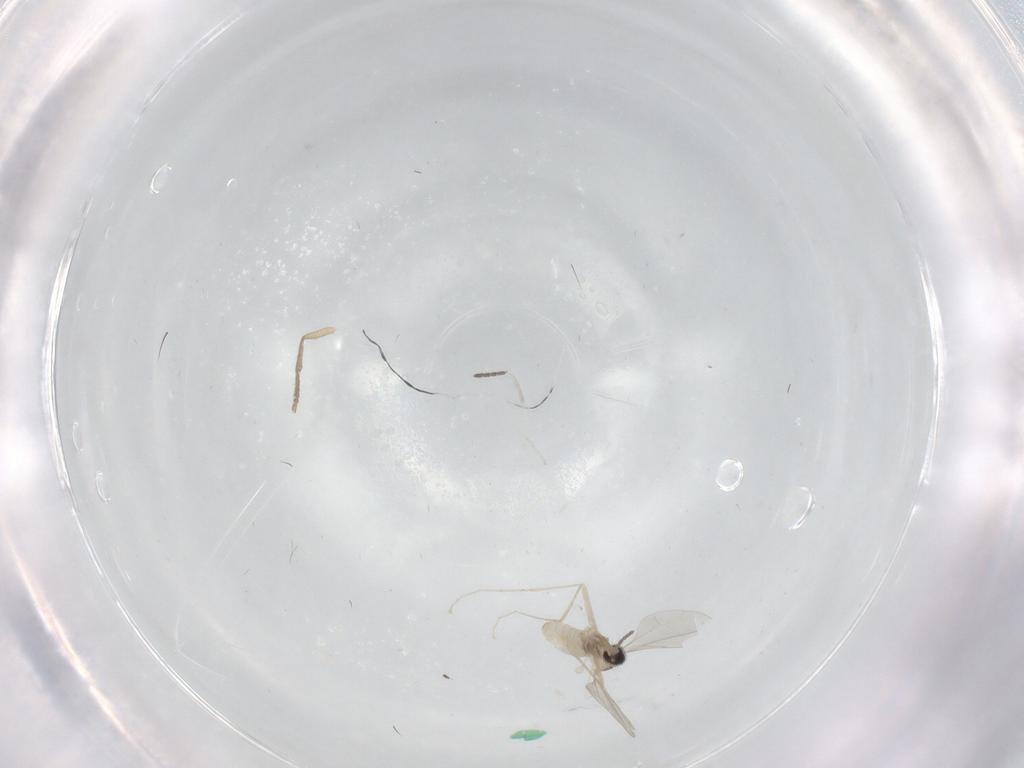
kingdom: Animalia
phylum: Arthropoda
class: Insecta
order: Diptera
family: Sciaridae
